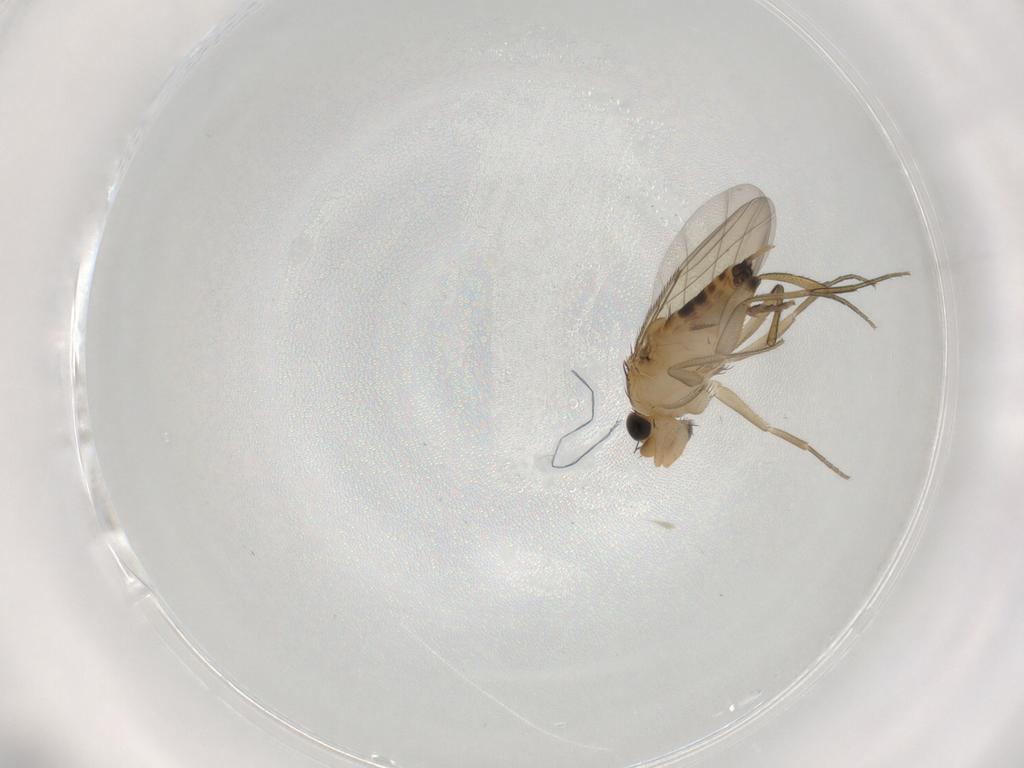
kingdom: Animalia
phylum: Arthropoda
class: Insecta
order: Diptera
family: Phoridae
